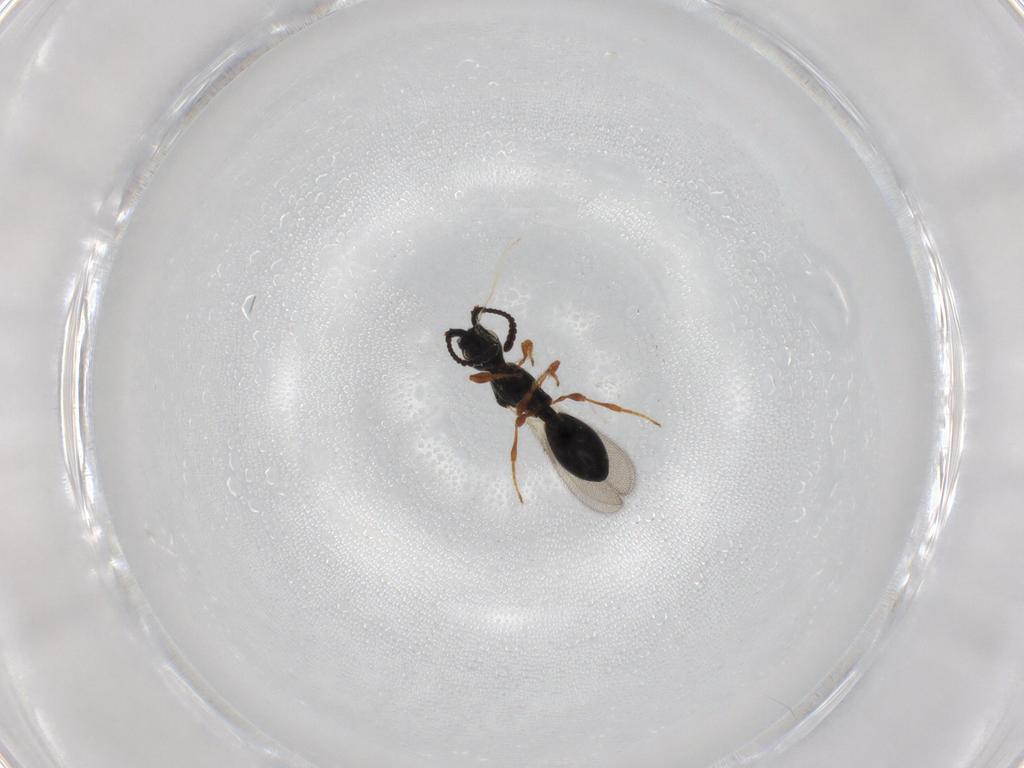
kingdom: Animalia
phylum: Arthropoda
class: Insecta
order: Hymenoptera
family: Diapriidae
